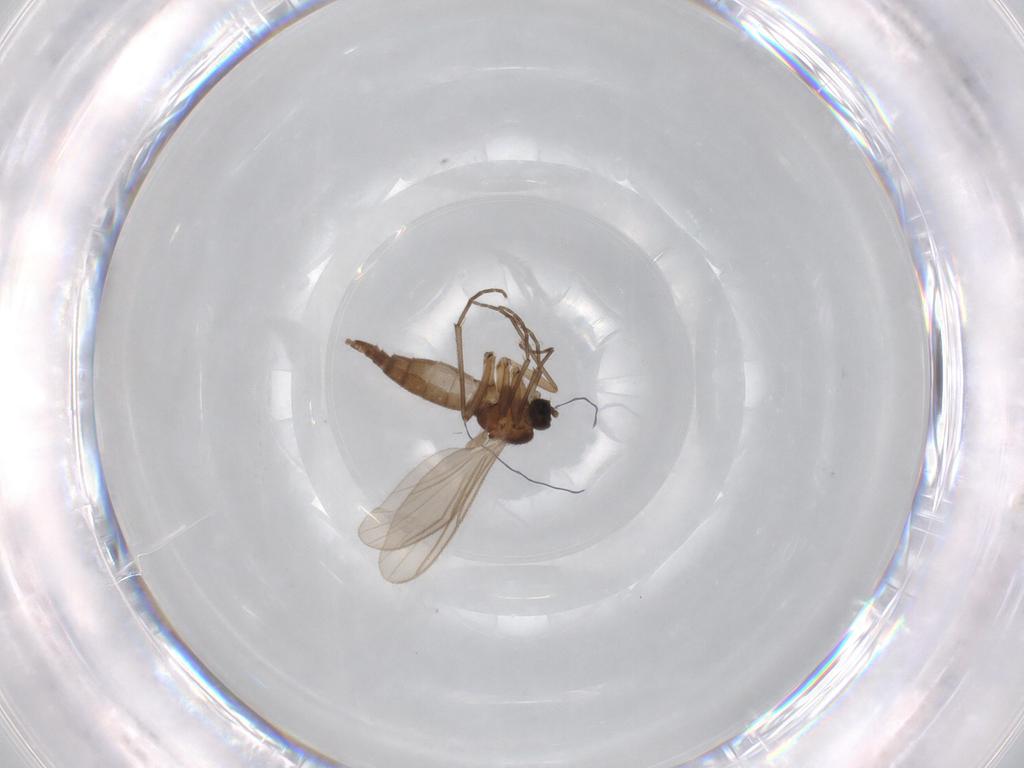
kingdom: Animalia
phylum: Arthropoda
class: Insecta
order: Diptera
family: Phoridae
